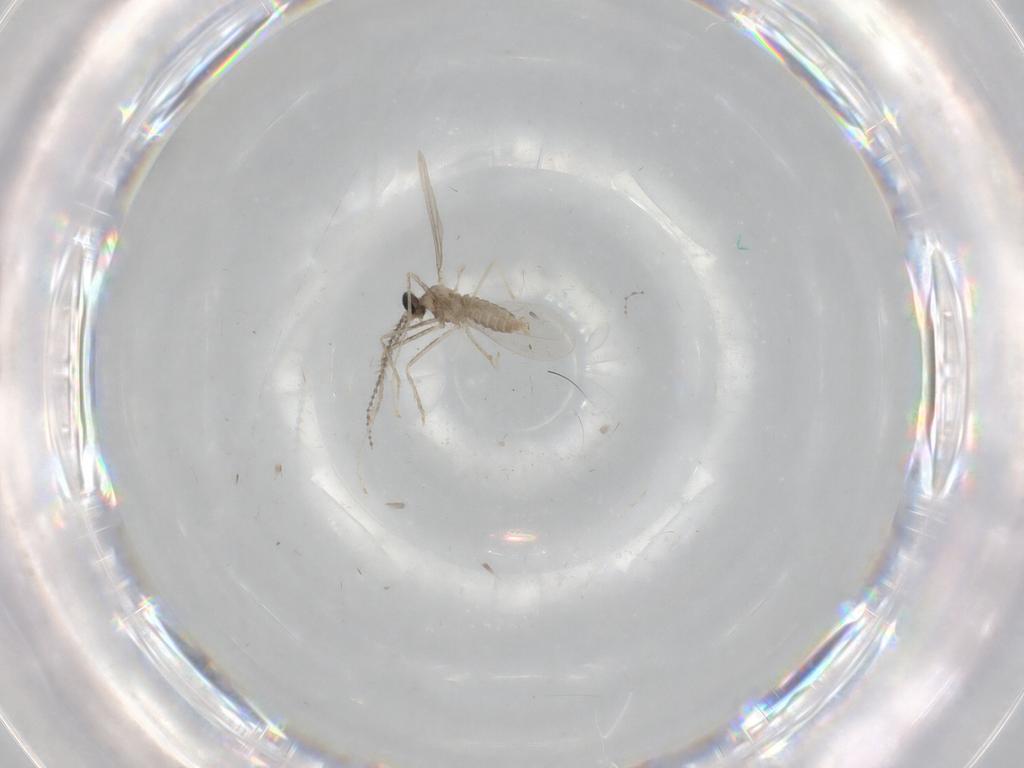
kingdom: Animalia
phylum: Arthropoda
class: Insecta
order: Diptera
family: Cecidomyiidae
